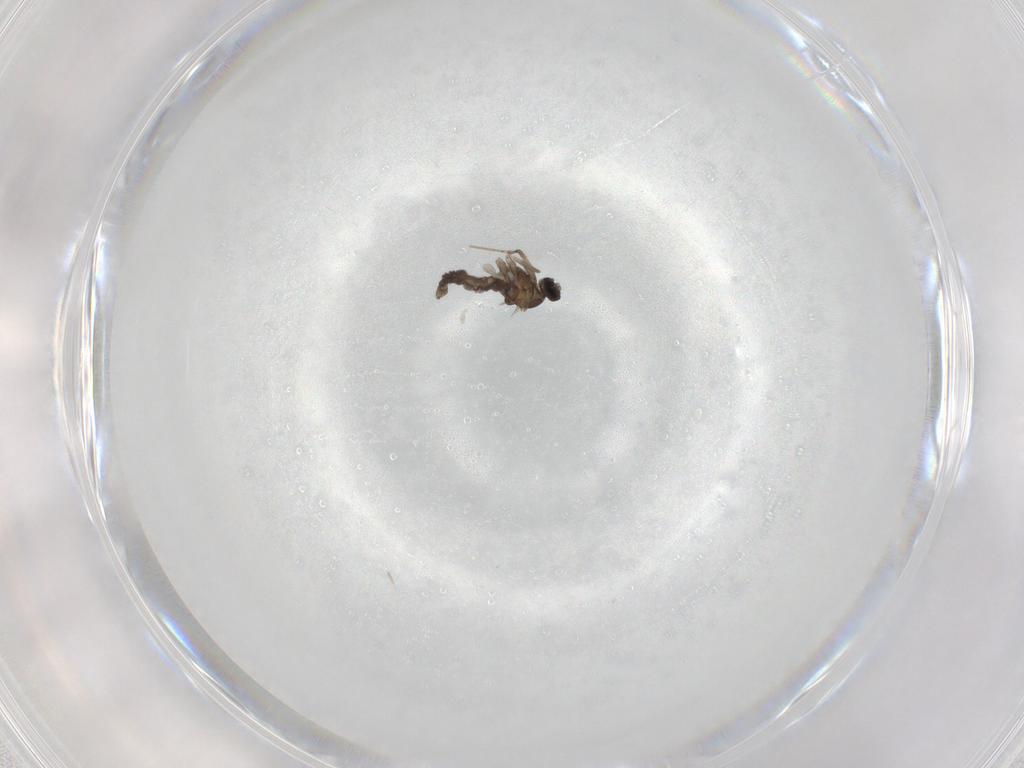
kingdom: Animalia
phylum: Arthropoda
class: Insecta
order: Diptera
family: Cecidomyiidae
